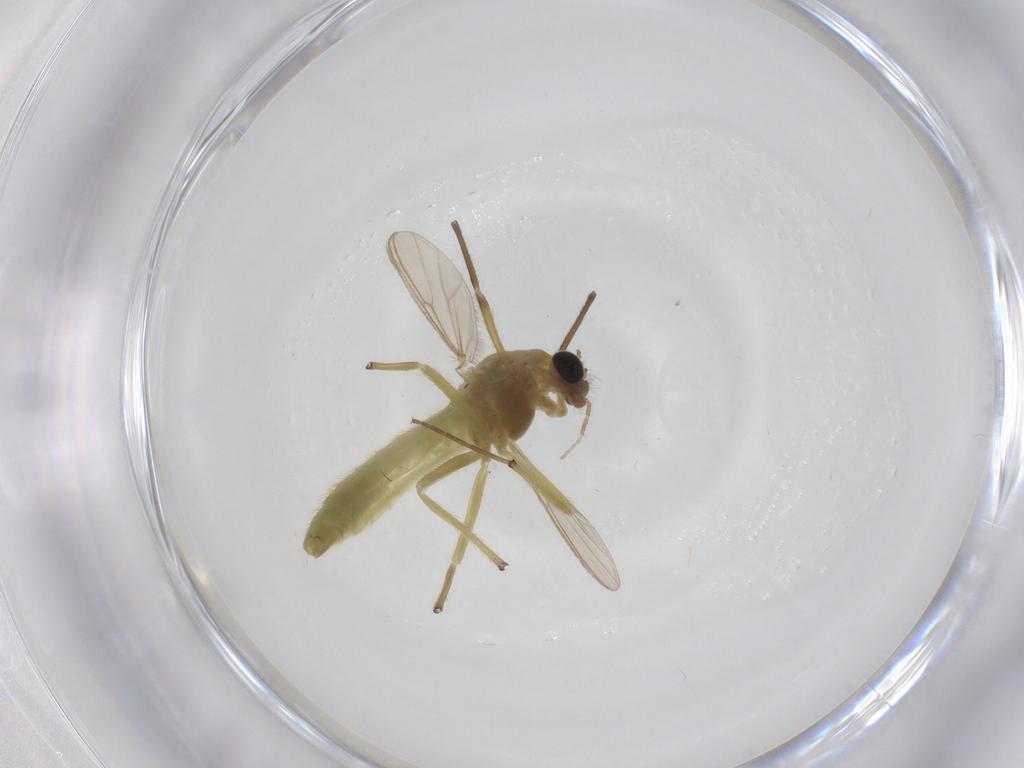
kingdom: Animalia
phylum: Arthropoda
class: Insecta
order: Diptera
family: Chironomidae
